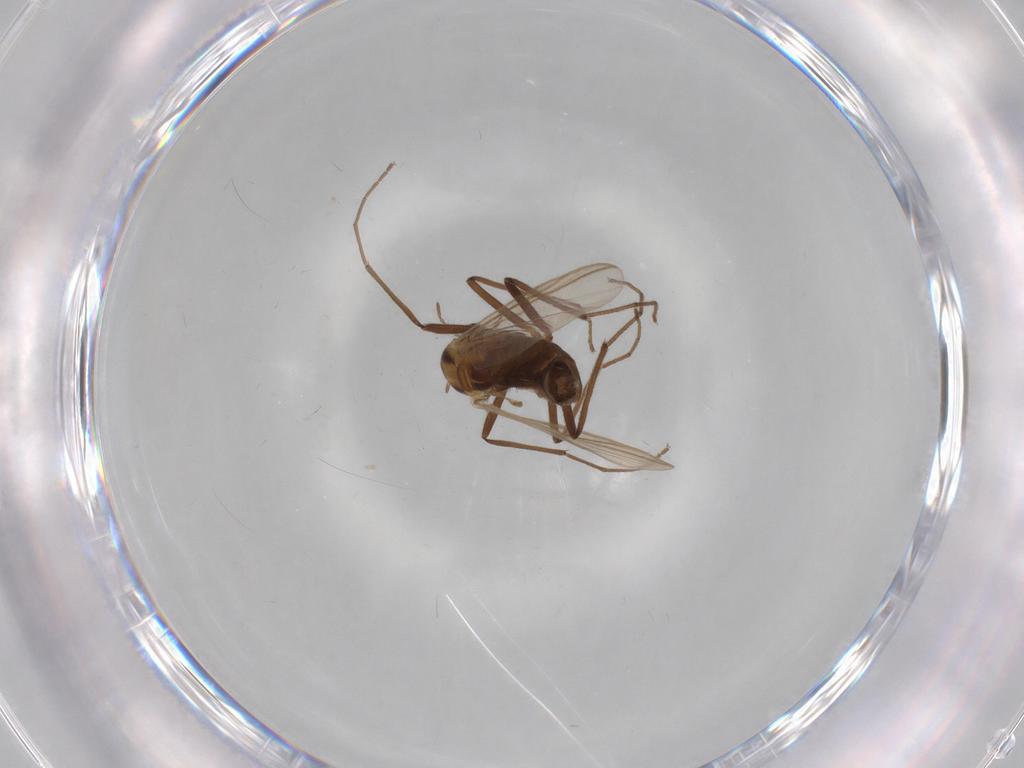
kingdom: Animalia
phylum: Arthropoda
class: Insecta
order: Diptera
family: Chironomidae
